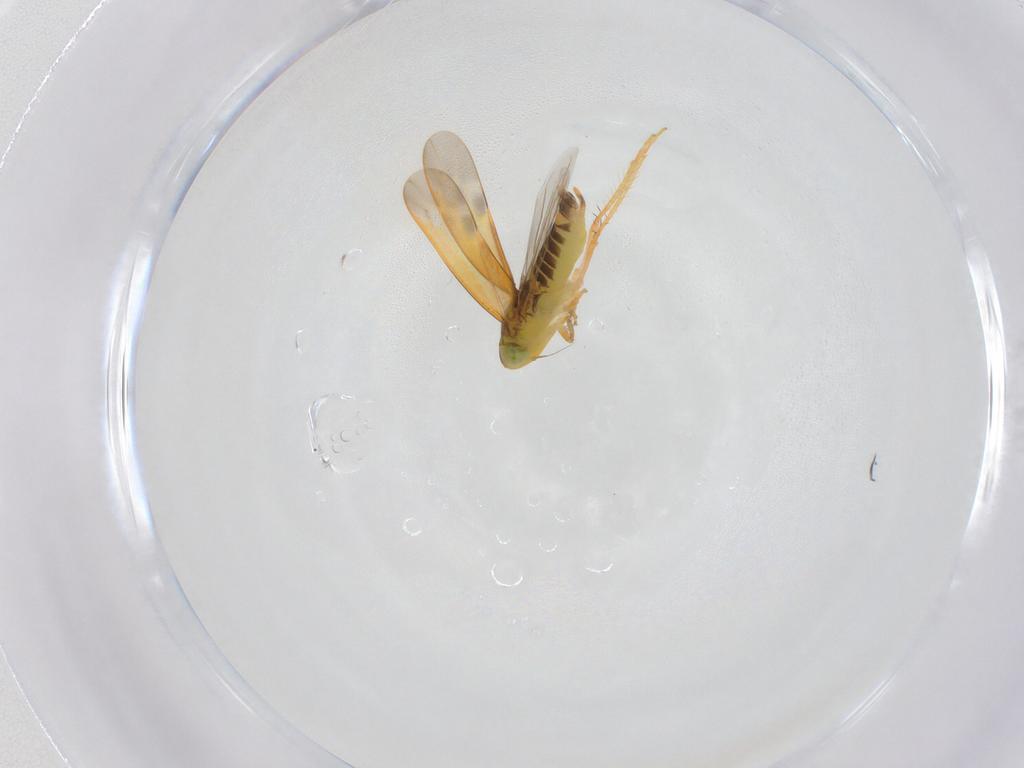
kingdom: Animalia
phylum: Arthropoda
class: Insecta
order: Hemiptera
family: Cicadellidae
